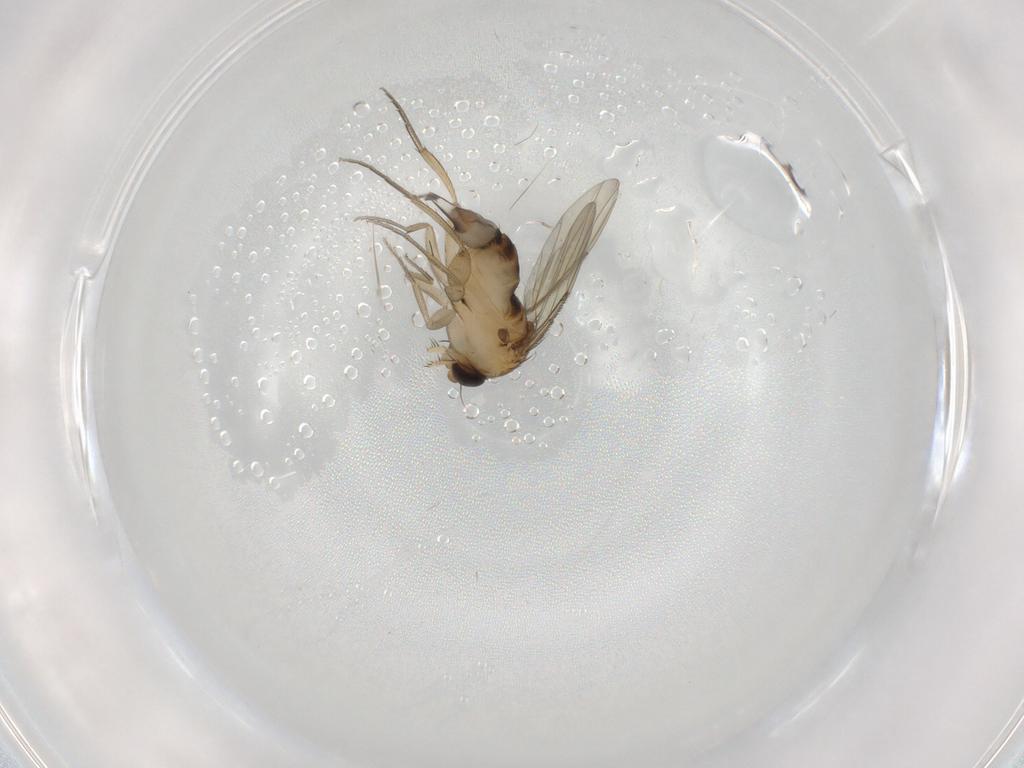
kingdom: Animalia
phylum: Arthropoda
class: Insecta
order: Diptera
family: Phoridae
